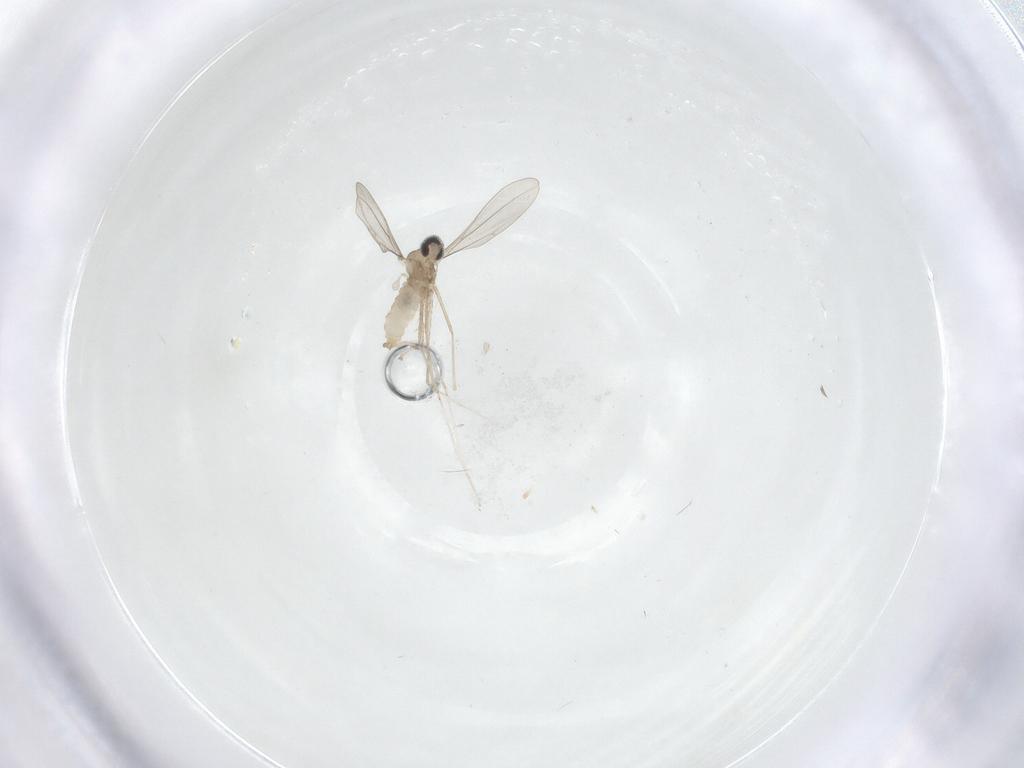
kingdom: Animalia
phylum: Arthropoda
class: Insecta
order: Diptera
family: Cecidomyiidae
